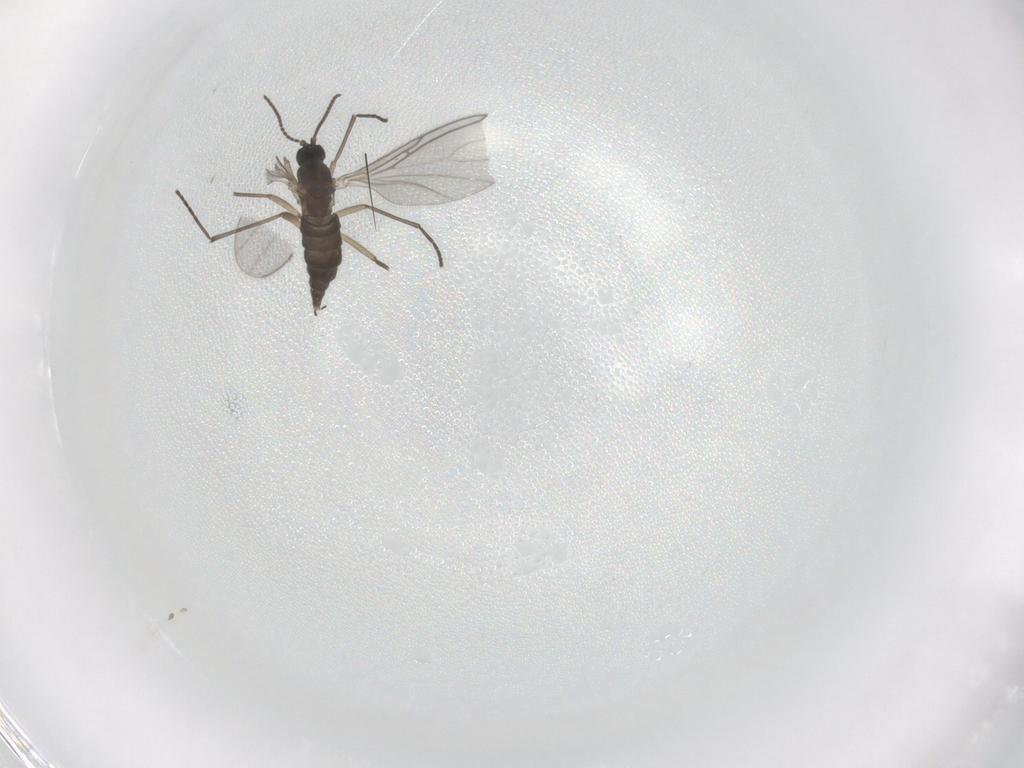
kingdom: Animalia
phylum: Arthropoda
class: Insecta
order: Diptera
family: Sciaridae
